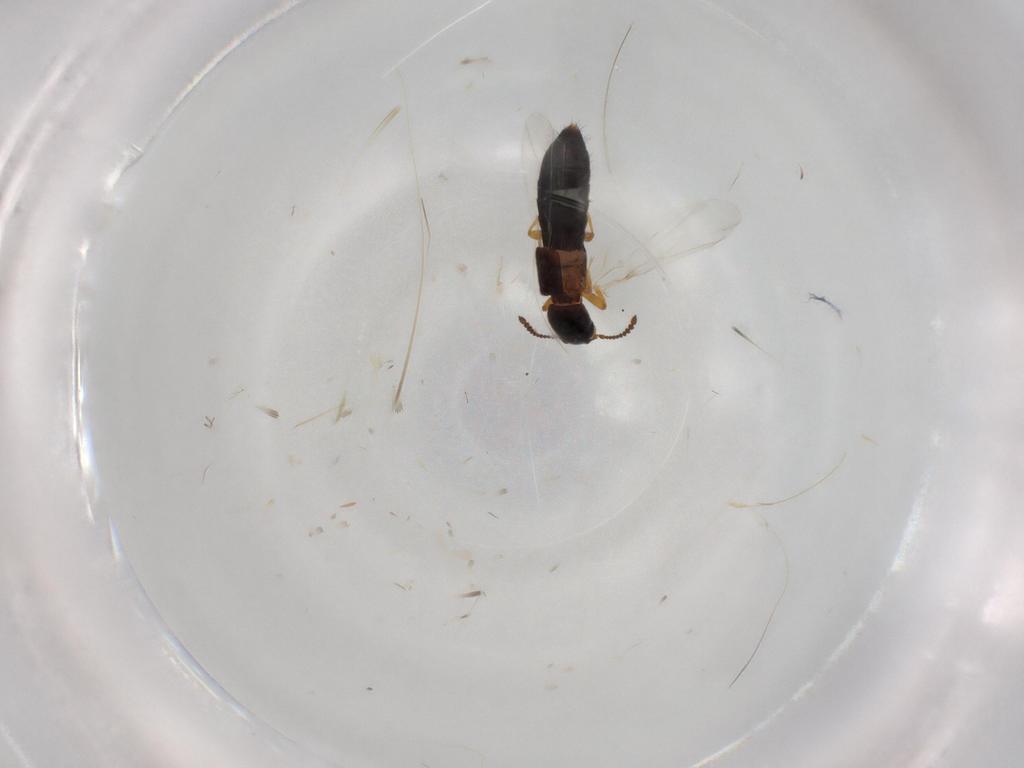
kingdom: Animalia
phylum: Arthropoda
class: Insecta
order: Coleoptera
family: Staphylinidae
